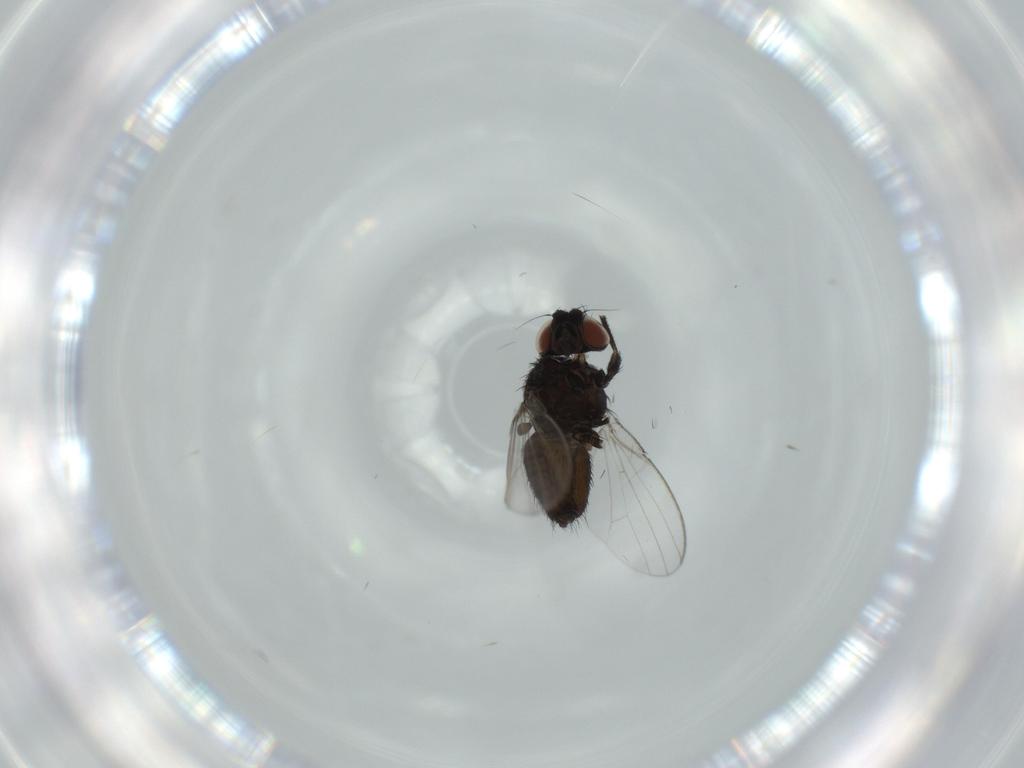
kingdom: Animalia
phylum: Arthropoda
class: Insecta
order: Diptera
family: Milichiidae
